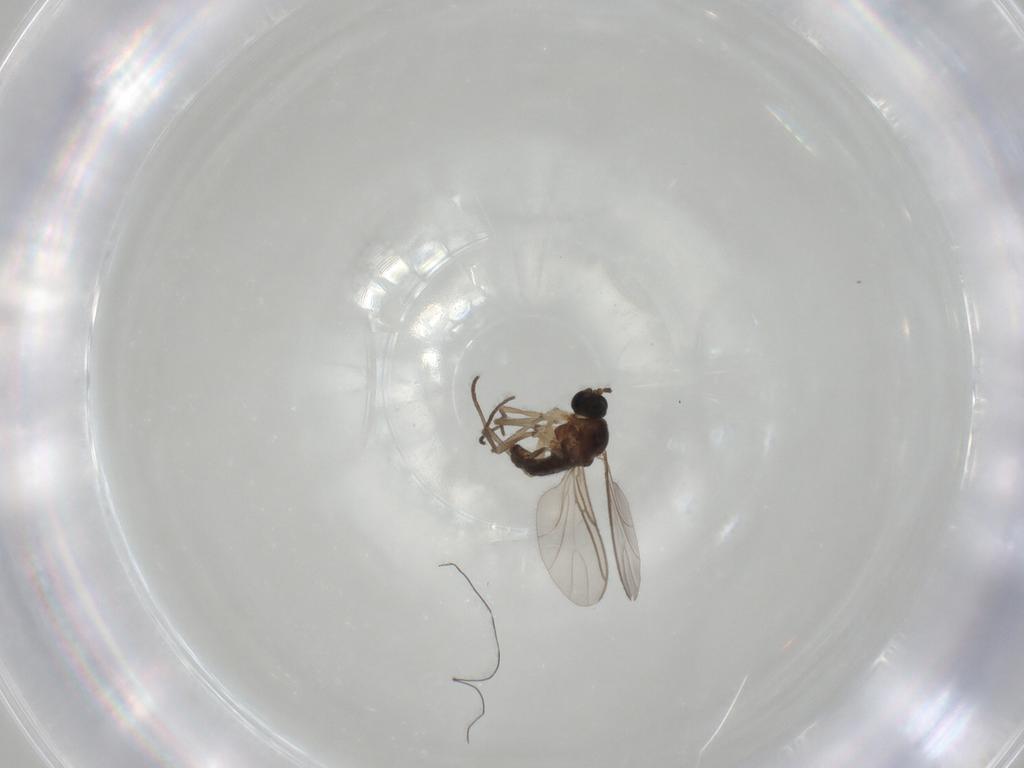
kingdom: Animalia
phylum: Arthropoda
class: Insecta
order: Diptera
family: Sciaridae
